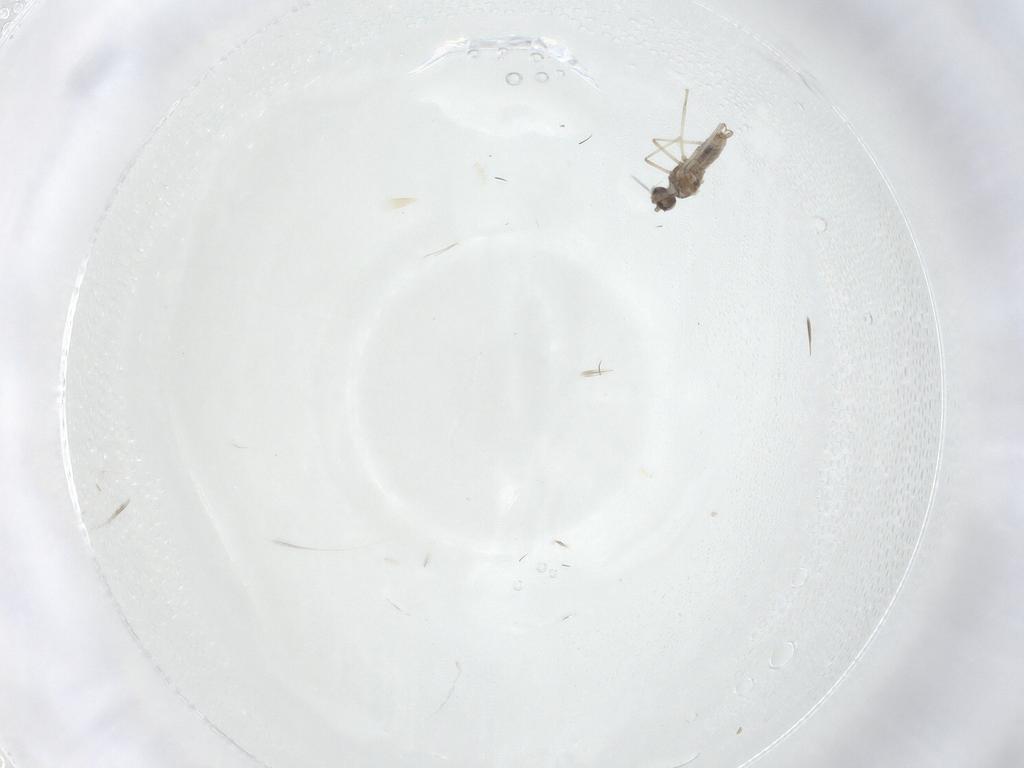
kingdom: Animalia
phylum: Arthropoda
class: Insecta
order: Diptera
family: Cecidomyiidae
